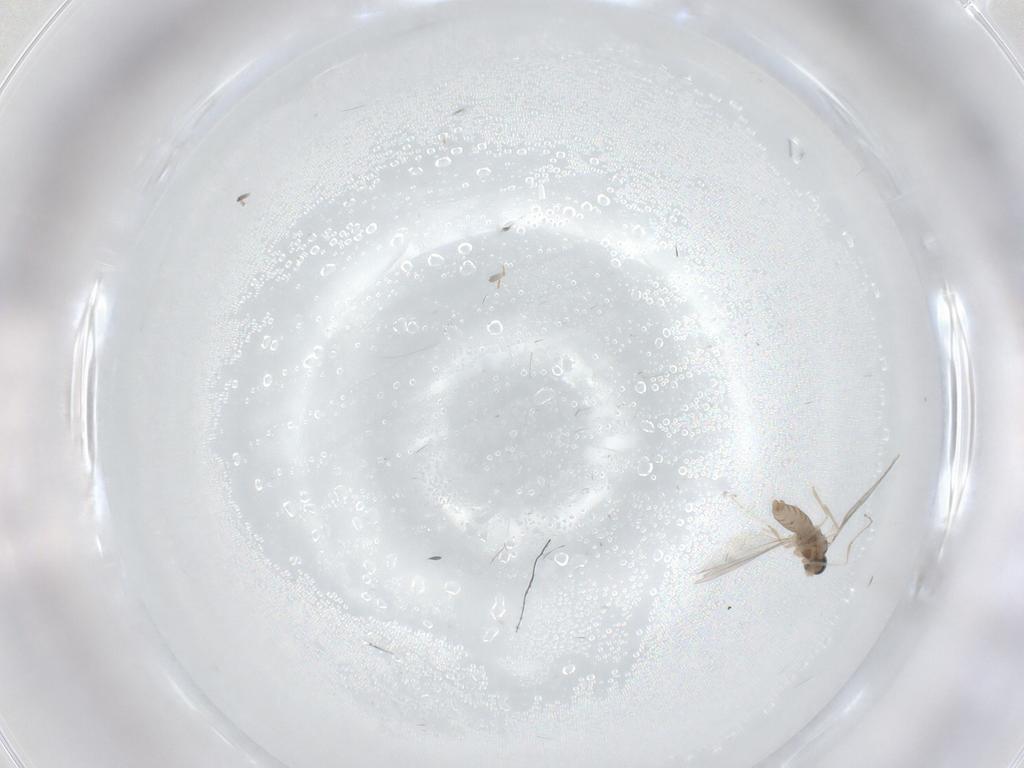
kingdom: Animalia
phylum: Arthropoda
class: Insecta
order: Diptera
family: Cecidomyiidae
